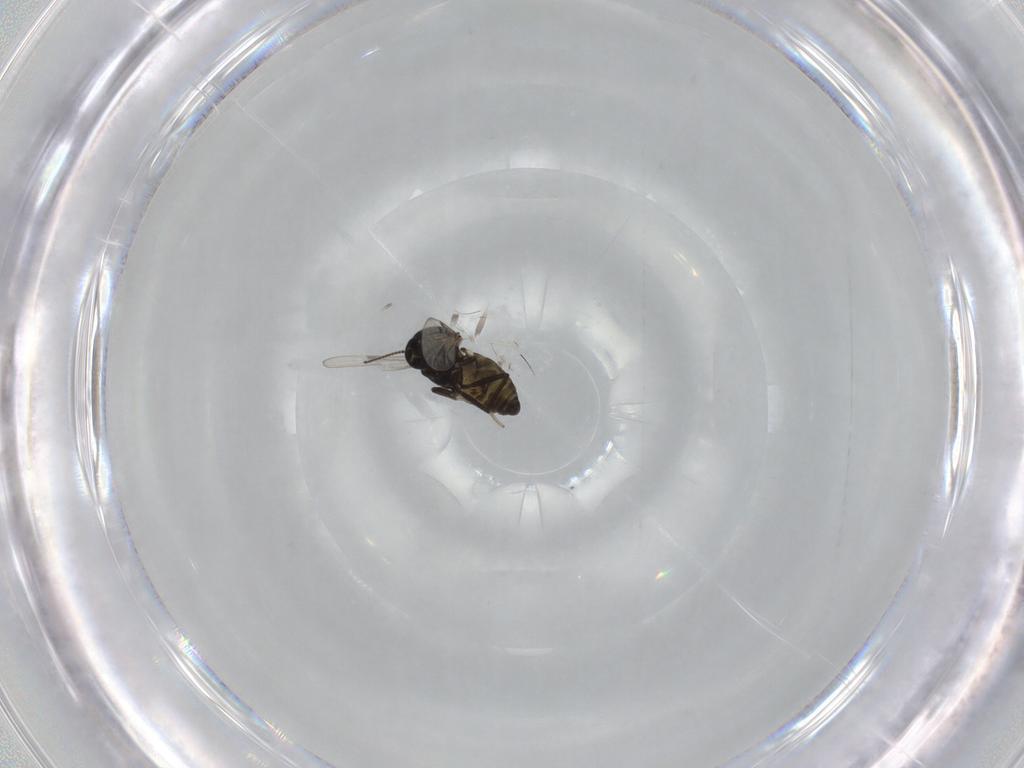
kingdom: Animalia
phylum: Arthropoda
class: Insecta
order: Diptera
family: Ceratopogonidae
